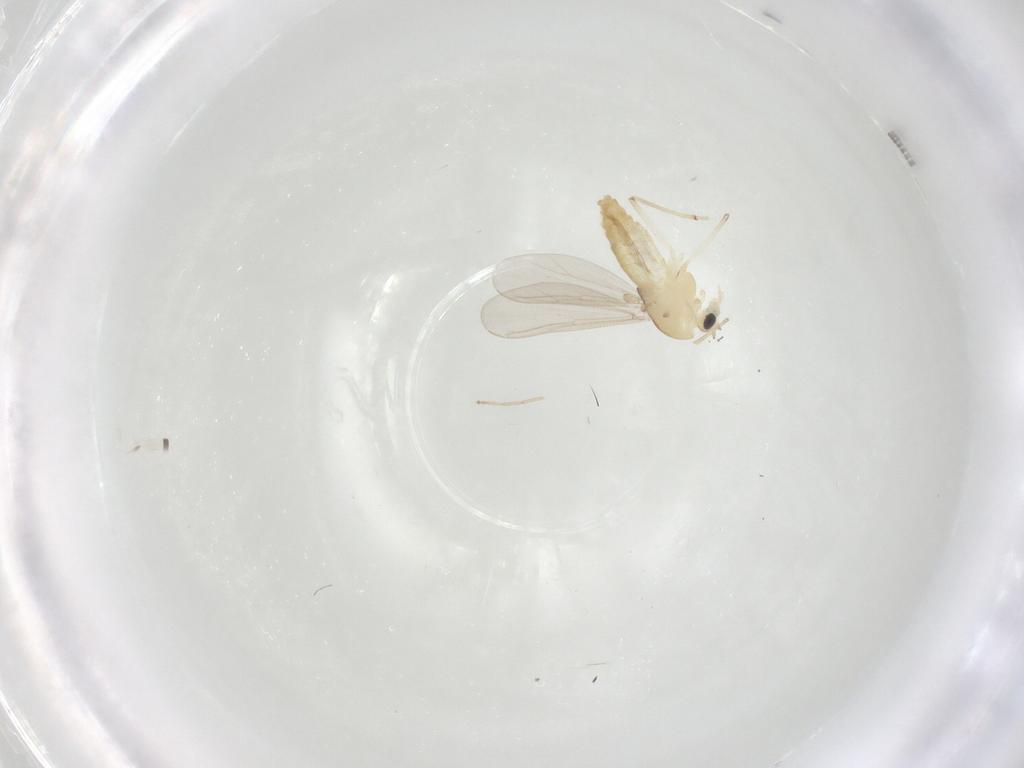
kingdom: Animalia
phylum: Arthropoda
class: Insecta
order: Diptera
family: Chironomidae
